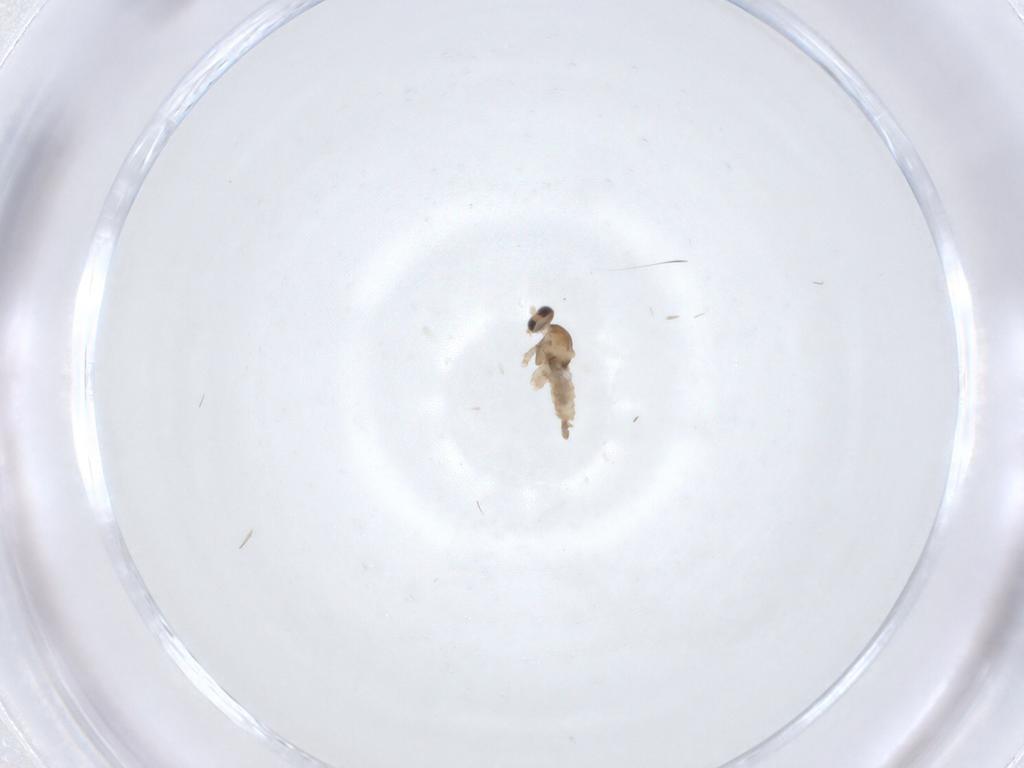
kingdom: Animalia
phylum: Arthropoda
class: Insecta
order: Diptera
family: Cecidomyiidae
